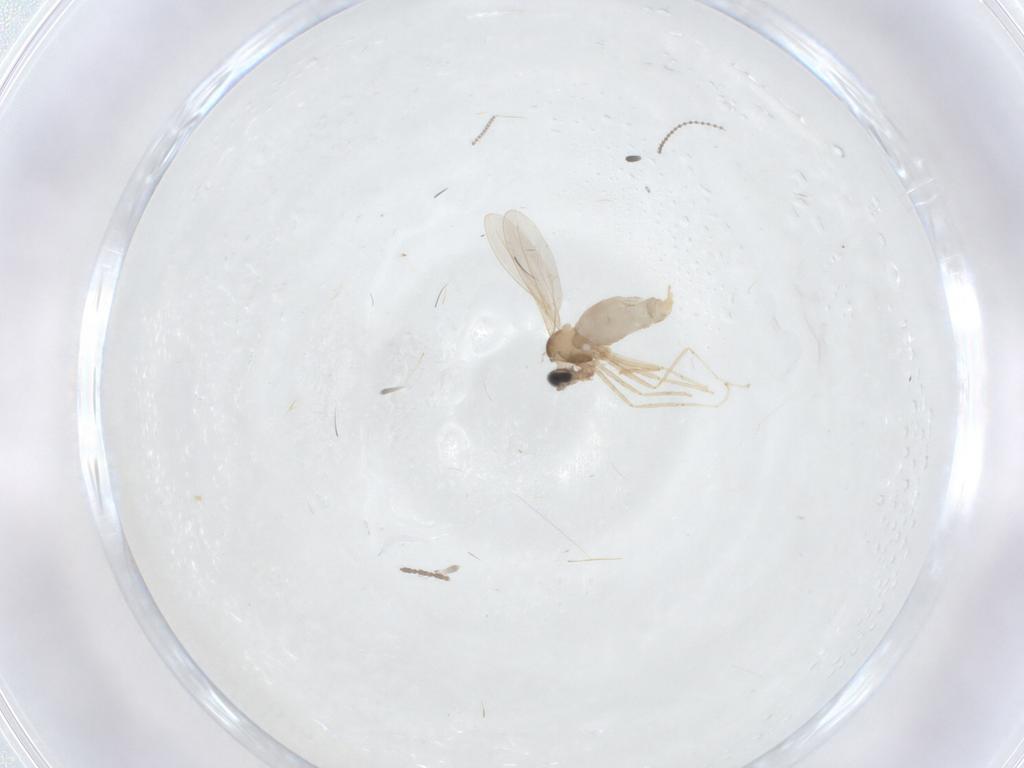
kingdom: Animalia
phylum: Arthropoda
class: Insecta
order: Diptera
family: Cecidomyiidae
